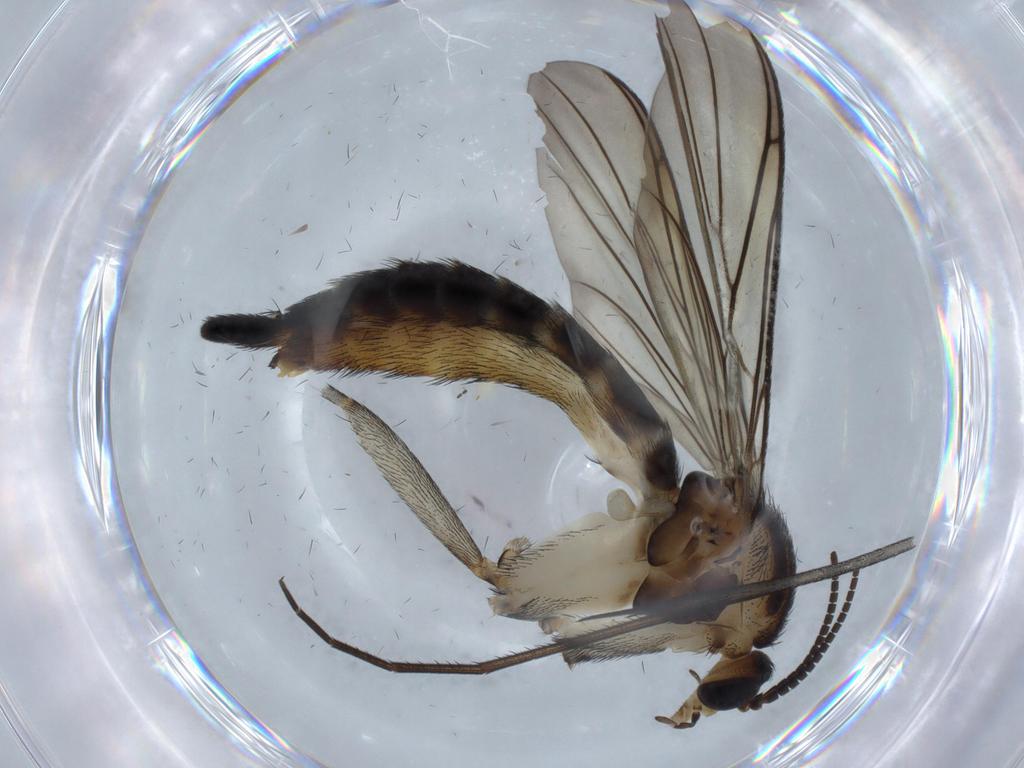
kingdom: Animalia
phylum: Arthropoda
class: Insecta
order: Diptera
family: Keroplatidae
